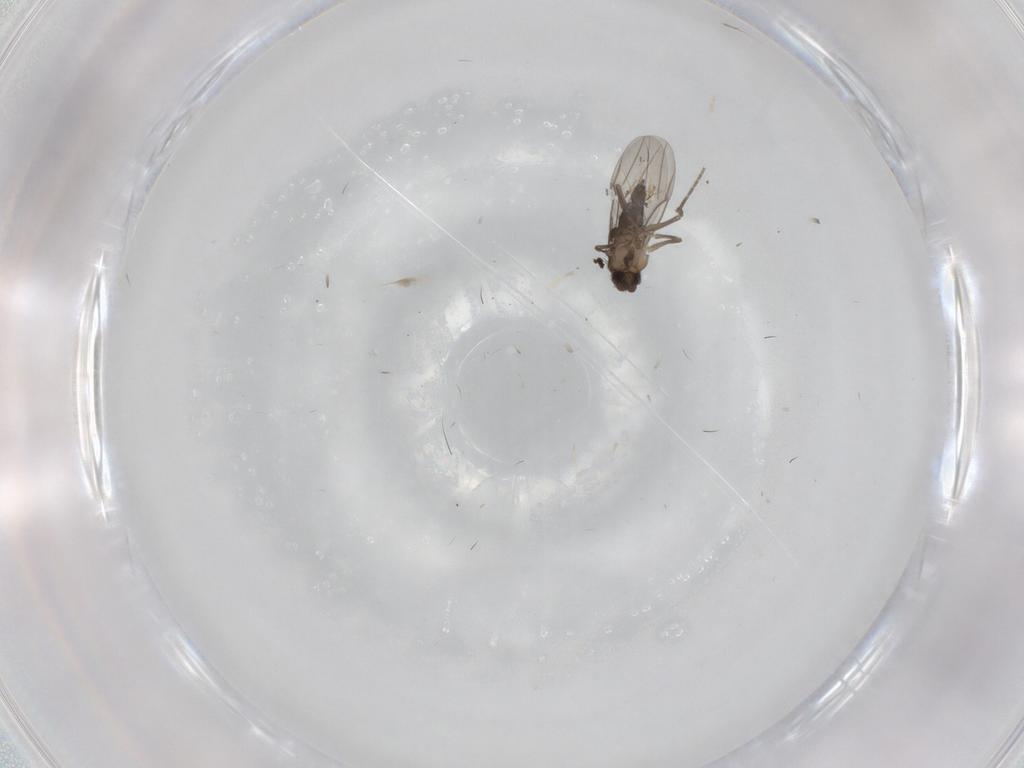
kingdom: Animalia
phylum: Arthropoda
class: Insecta
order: Diptera
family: Phoridae
